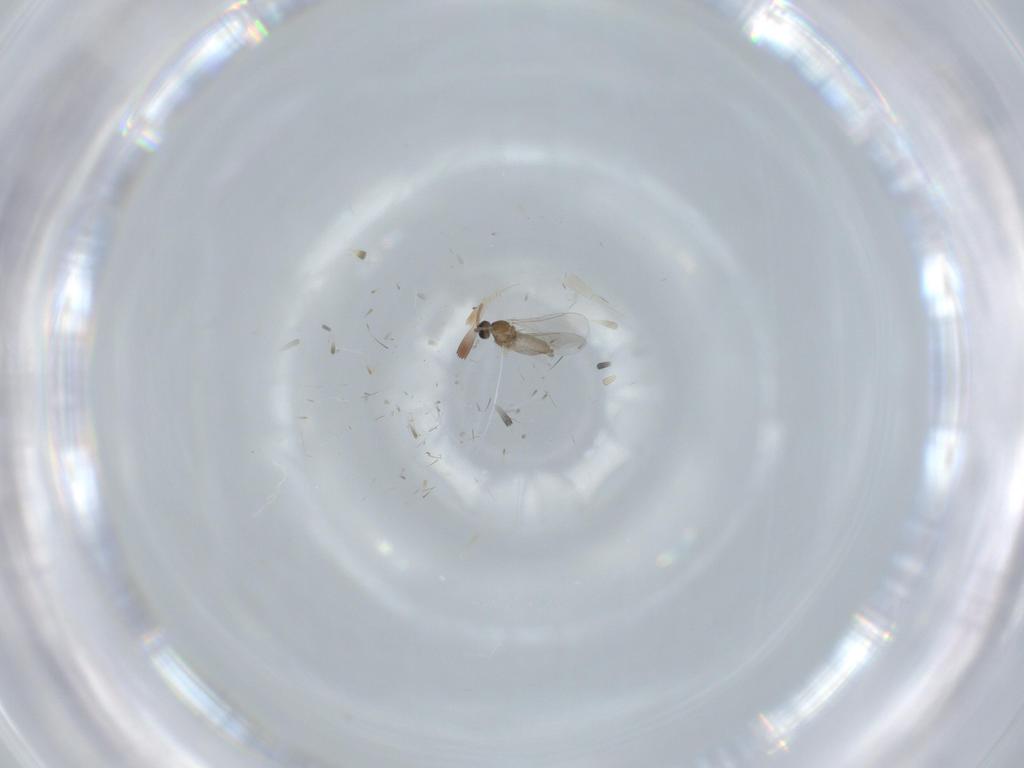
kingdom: Animalia
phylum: Arthropoda
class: Insecta
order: Diptera
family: Cecidomyiidae
